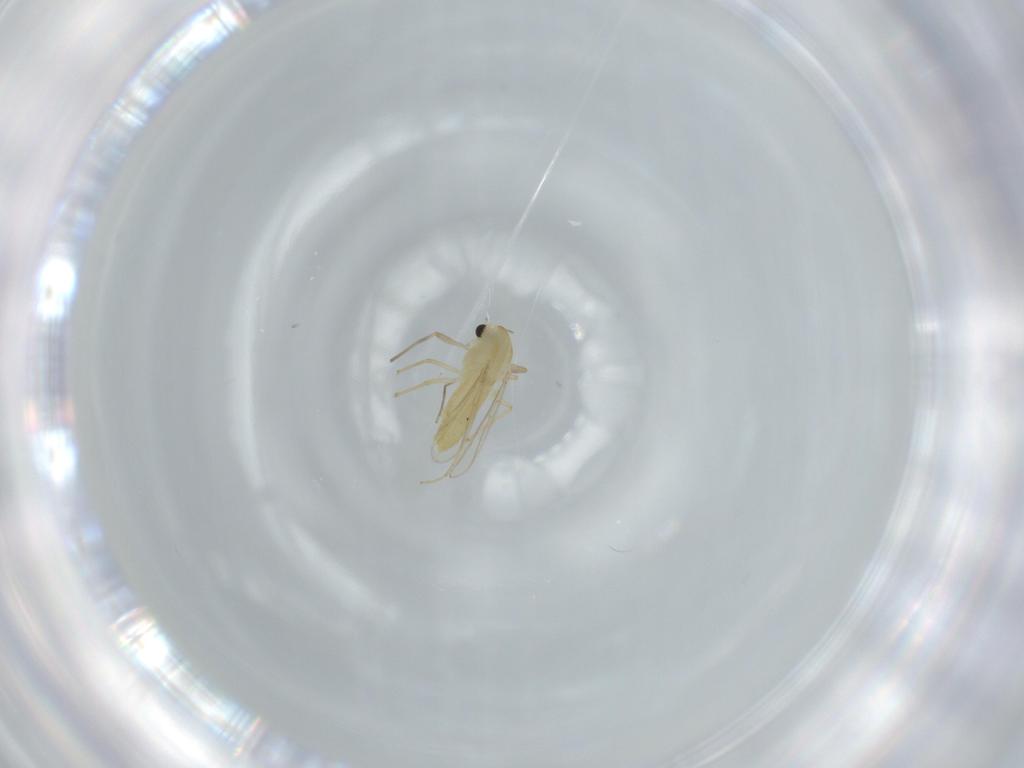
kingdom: Animalia
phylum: Arthropoda
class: Insecta
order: Diptera
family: Chironomidae
